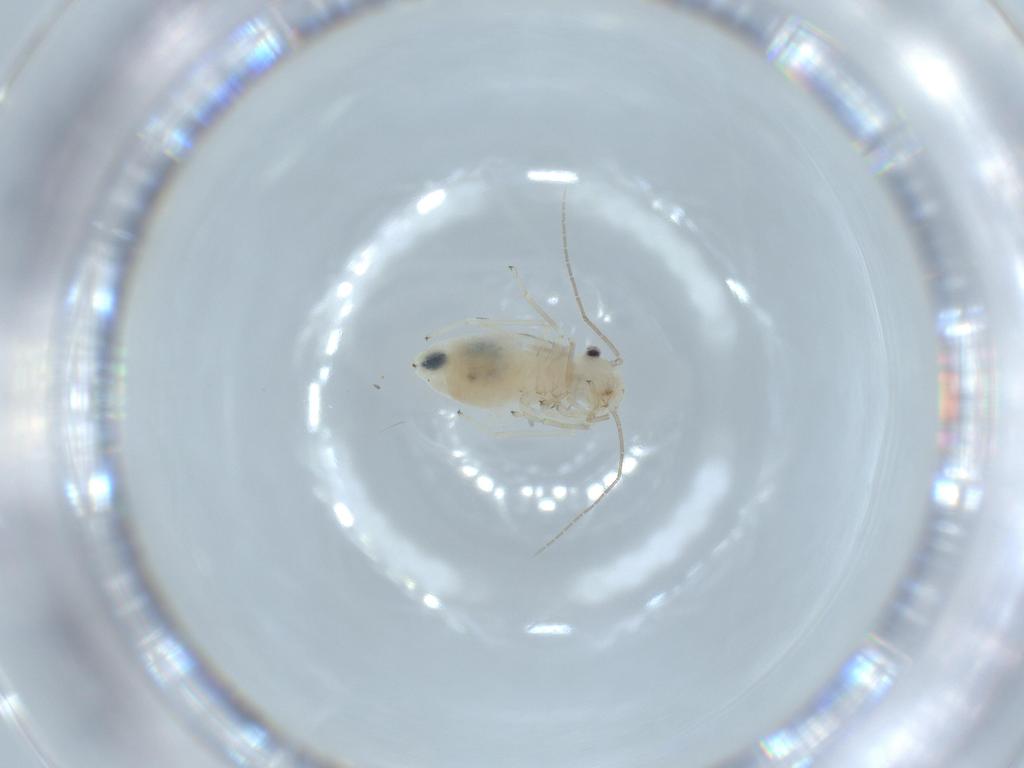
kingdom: Animalia
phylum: Arthropoda
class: Insecta
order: Psocodea
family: Caeciliusidae
